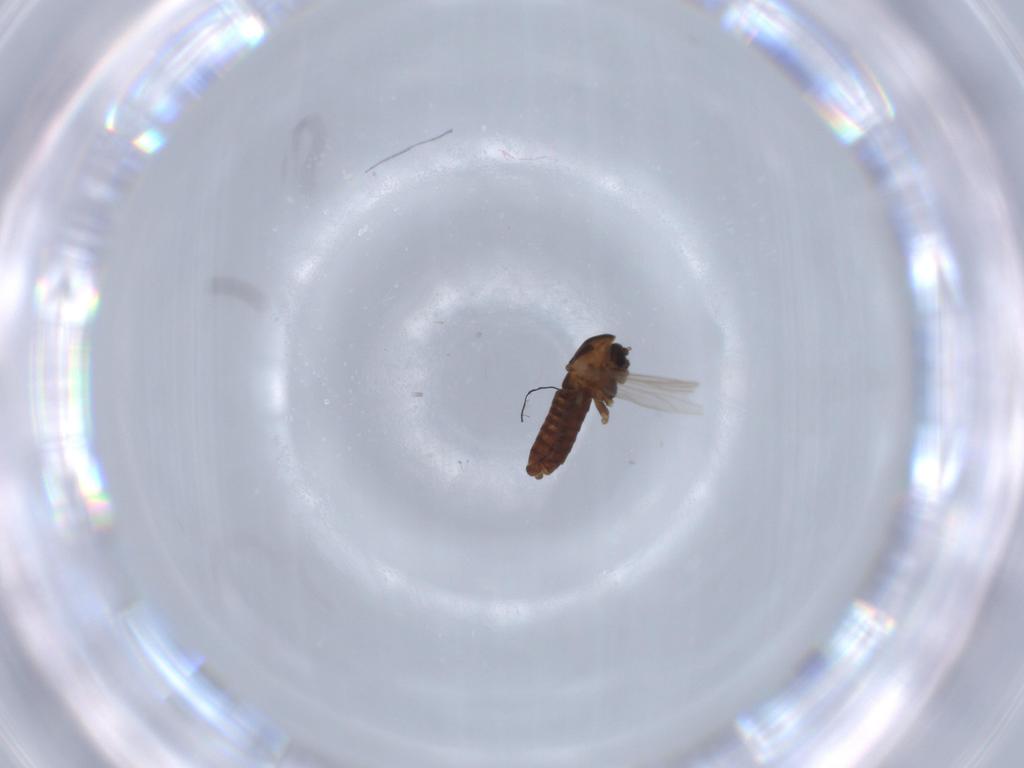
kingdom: Animalia
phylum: Arthropoda
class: Insecta
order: Diptera
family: Chironomidae
